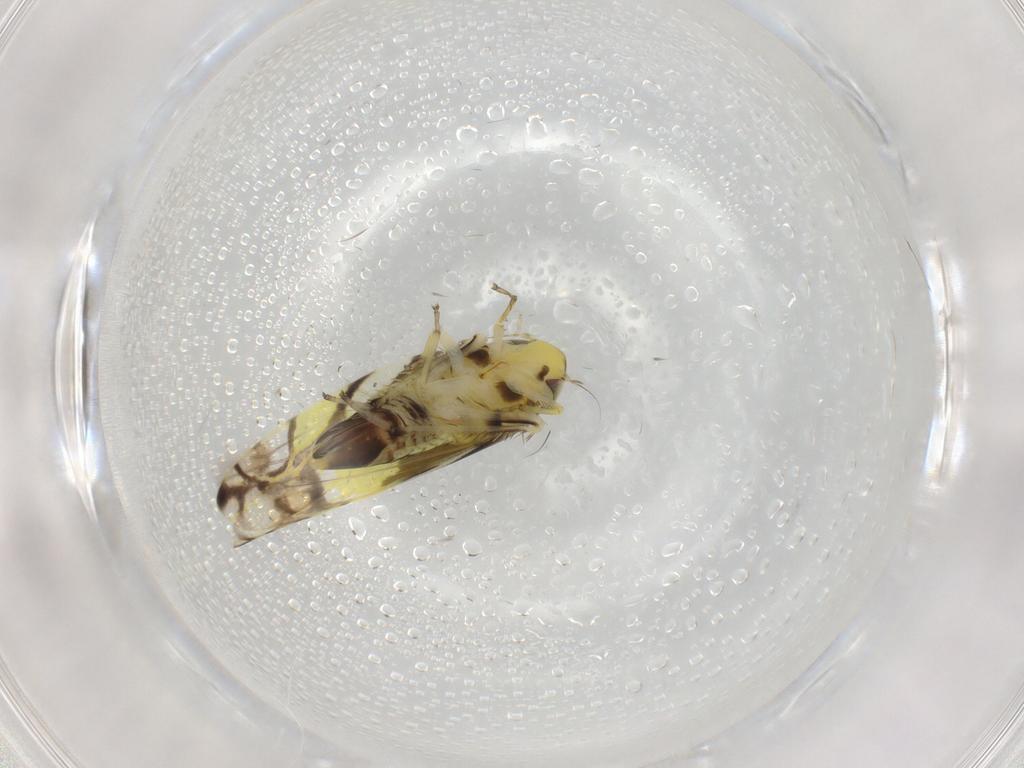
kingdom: Animalia
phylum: Arthropoda
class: Insecta
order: Hemiptera
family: Cicadellidae
